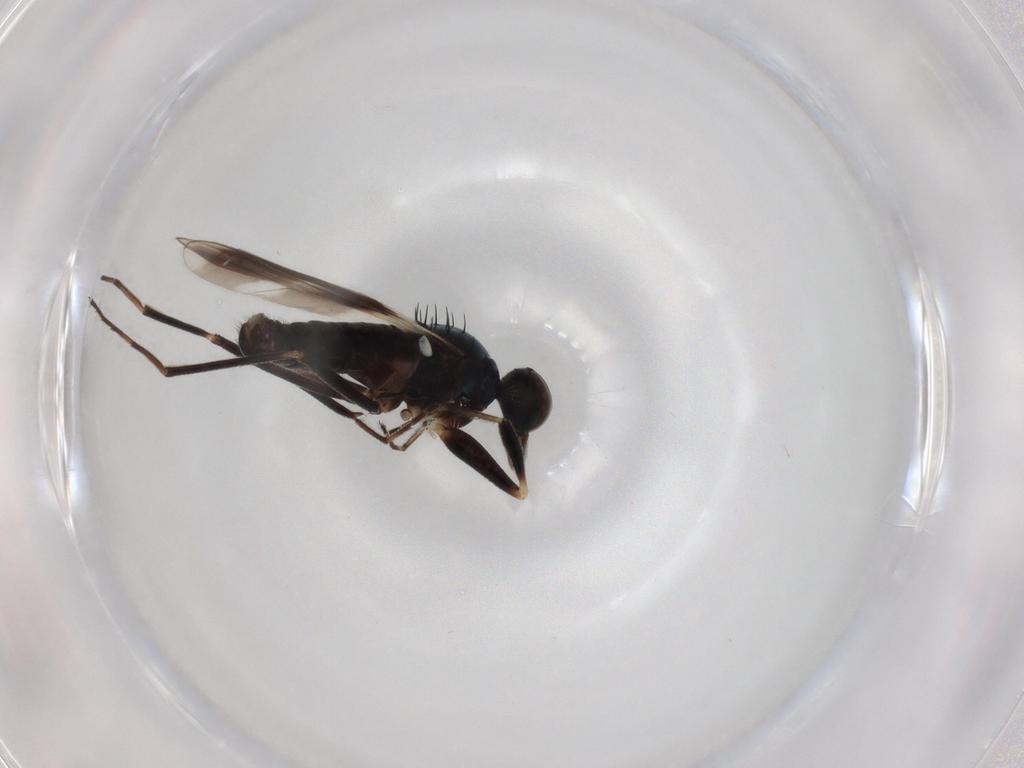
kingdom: Animalia
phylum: Arthropoda
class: Insecta
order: Diptera
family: Hybotidae
